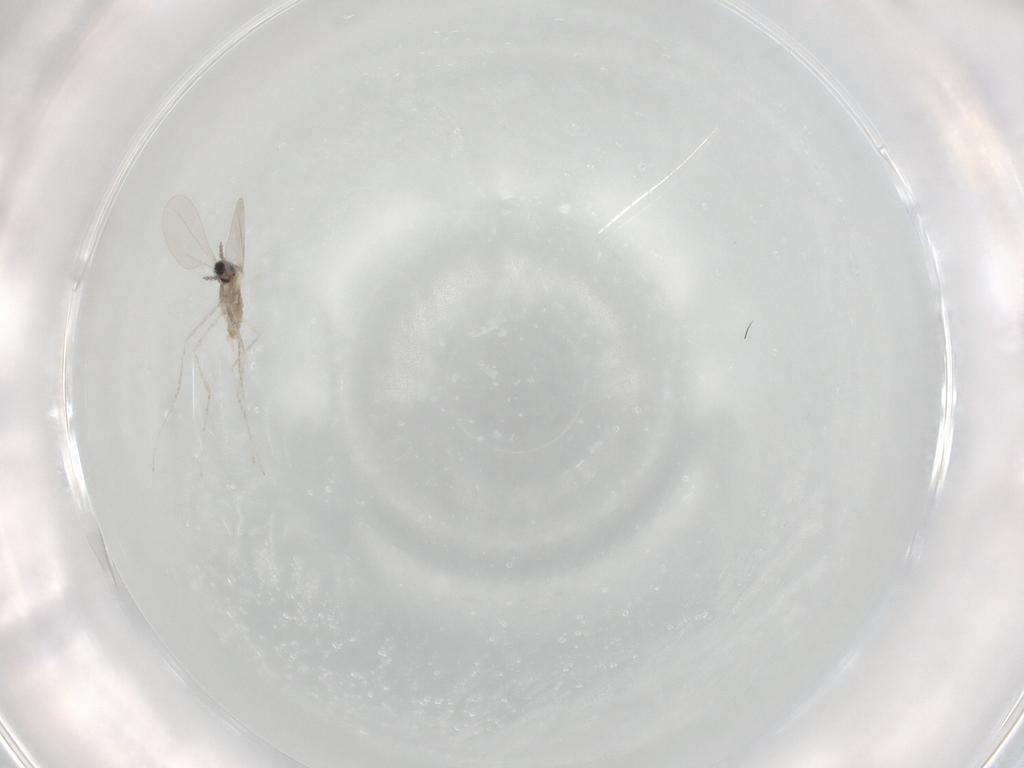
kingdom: Animalia
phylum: Arthropoda
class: Insecta
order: Diptera
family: Cecidomyiidae
